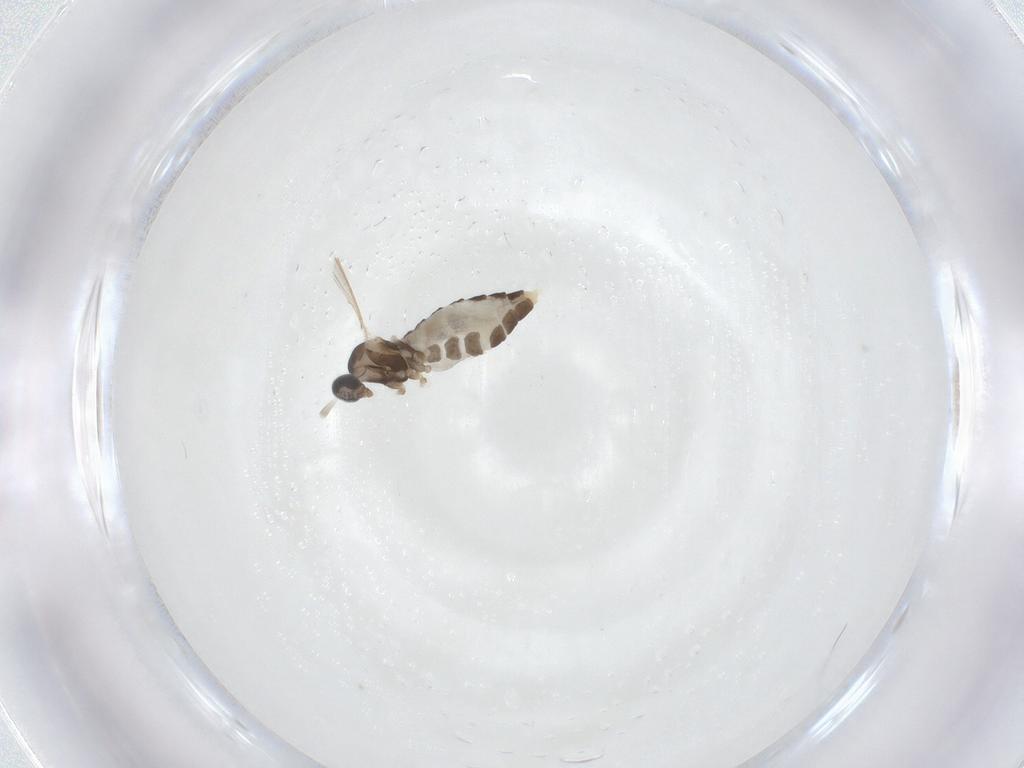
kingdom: Animalia
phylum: Arthropoda
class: Insecta
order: Diptera
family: Cecidomyiidae
